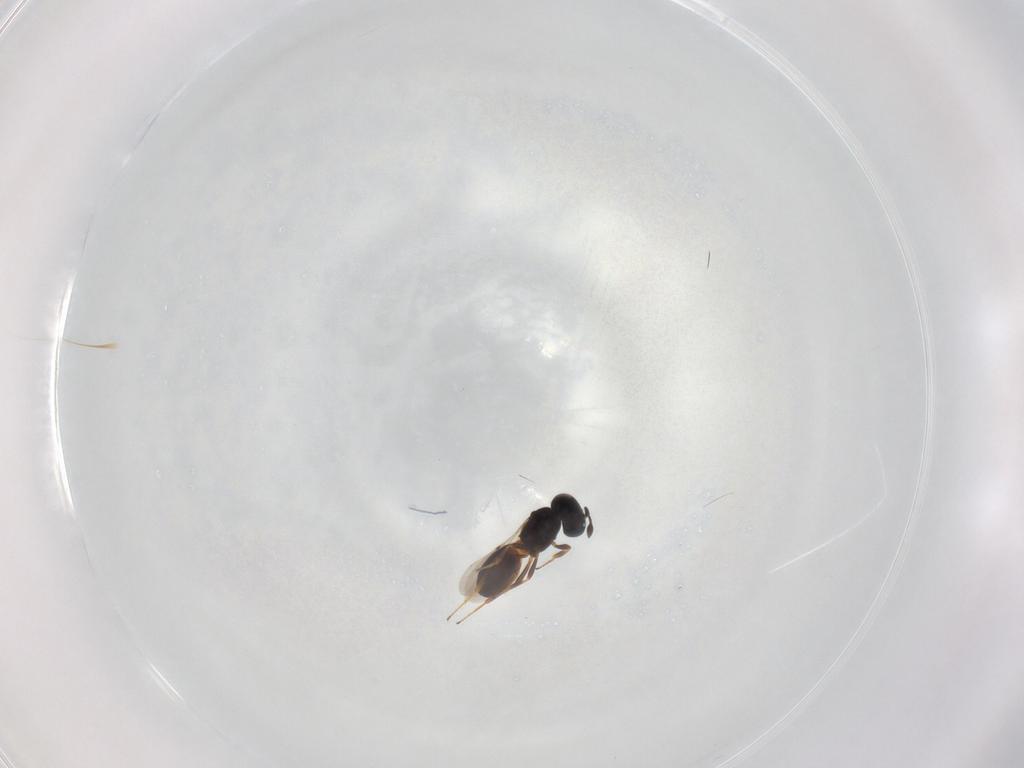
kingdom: Animalia
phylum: Arthropoda
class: Insecta
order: Hymenoptera
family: Scelionidae
